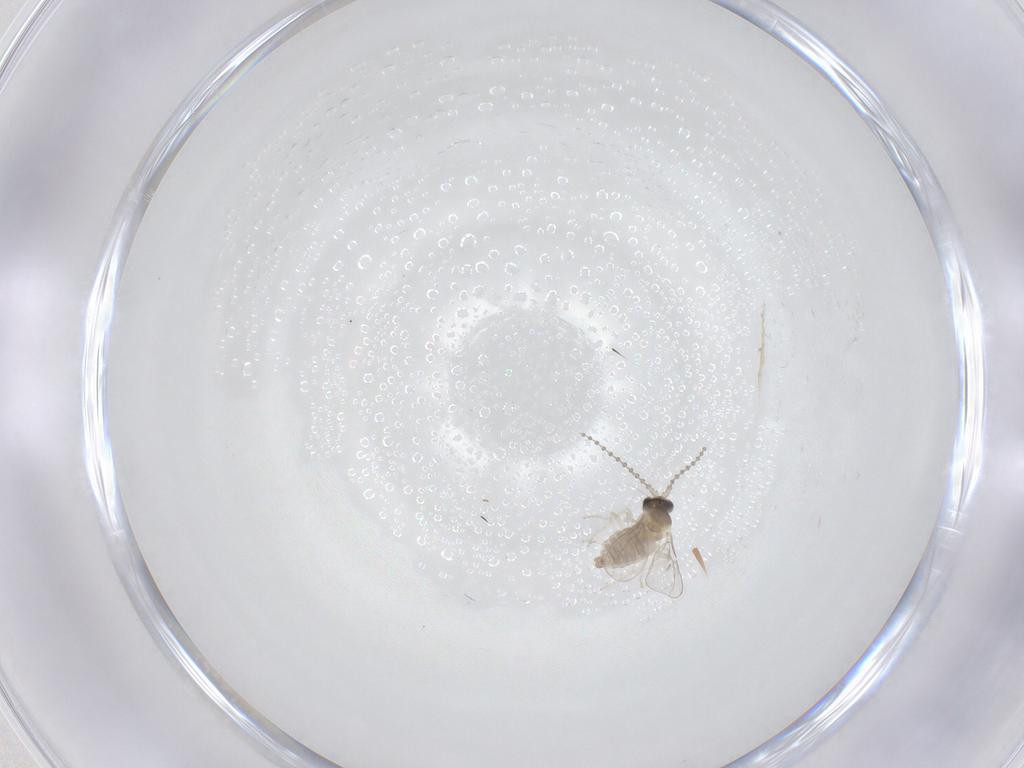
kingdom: Animalia
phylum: Arthropoda
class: Insecta
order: Diptera
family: Cecidomyiidae
